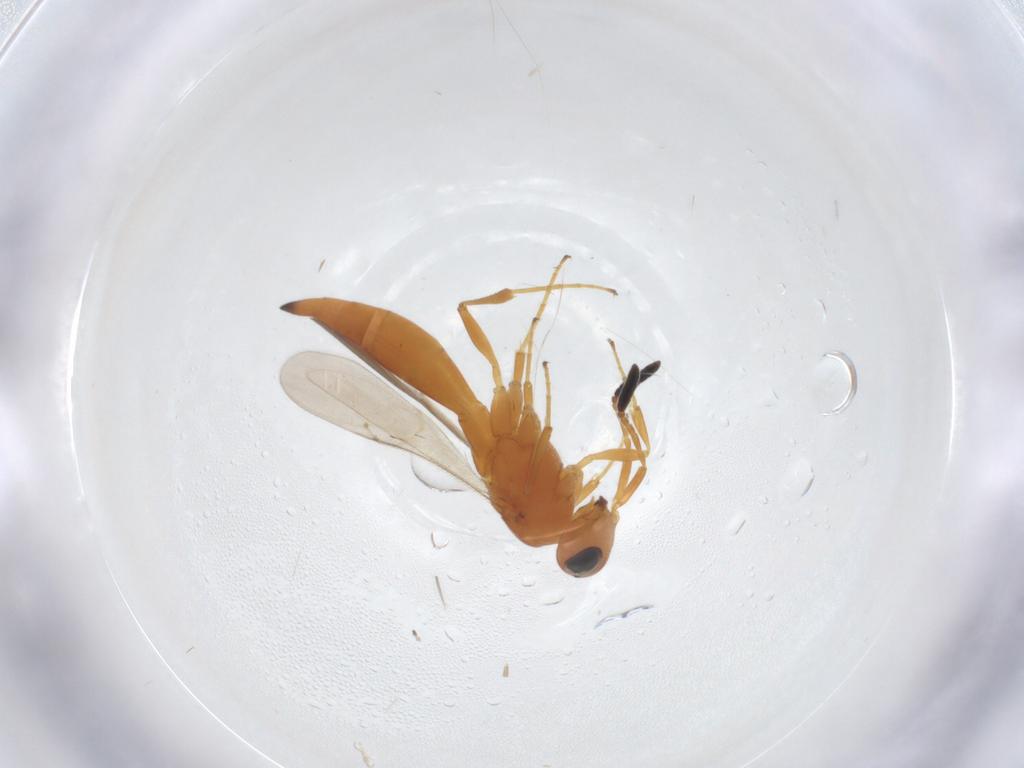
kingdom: Animalia
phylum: Arthropoda
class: Insecta
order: Hymenoptera
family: Scelionidae
